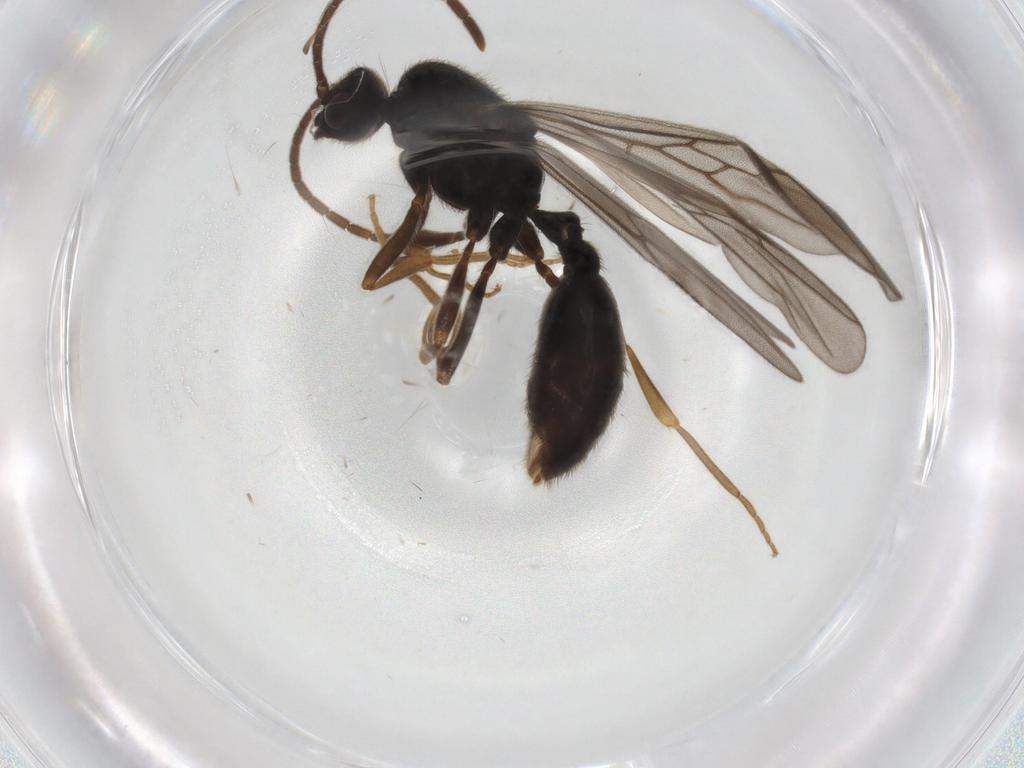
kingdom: Animalia
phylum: Arthropoda
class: Insecta
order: Hymenoptera
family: Formicidae
